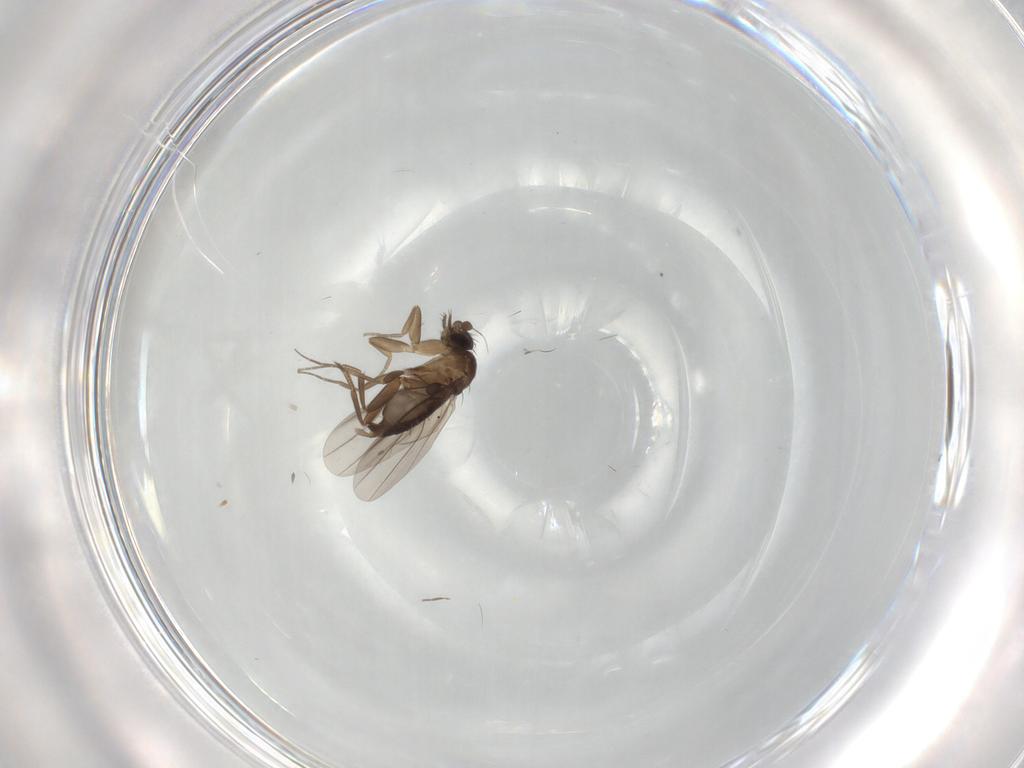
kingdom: Animalia
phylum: Arthropoda
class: Insecta
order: Diptera
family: Phoridae
